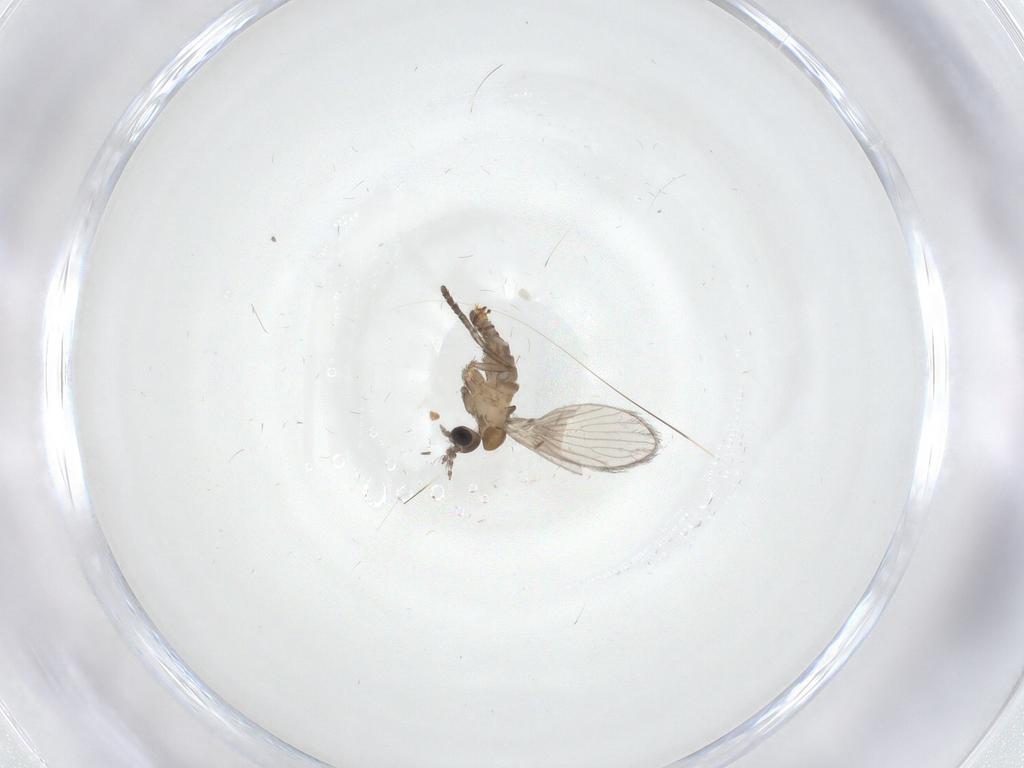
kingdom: Animalia
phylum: Arthropoda
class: Insecta
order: Diptera
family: Psychodidae
